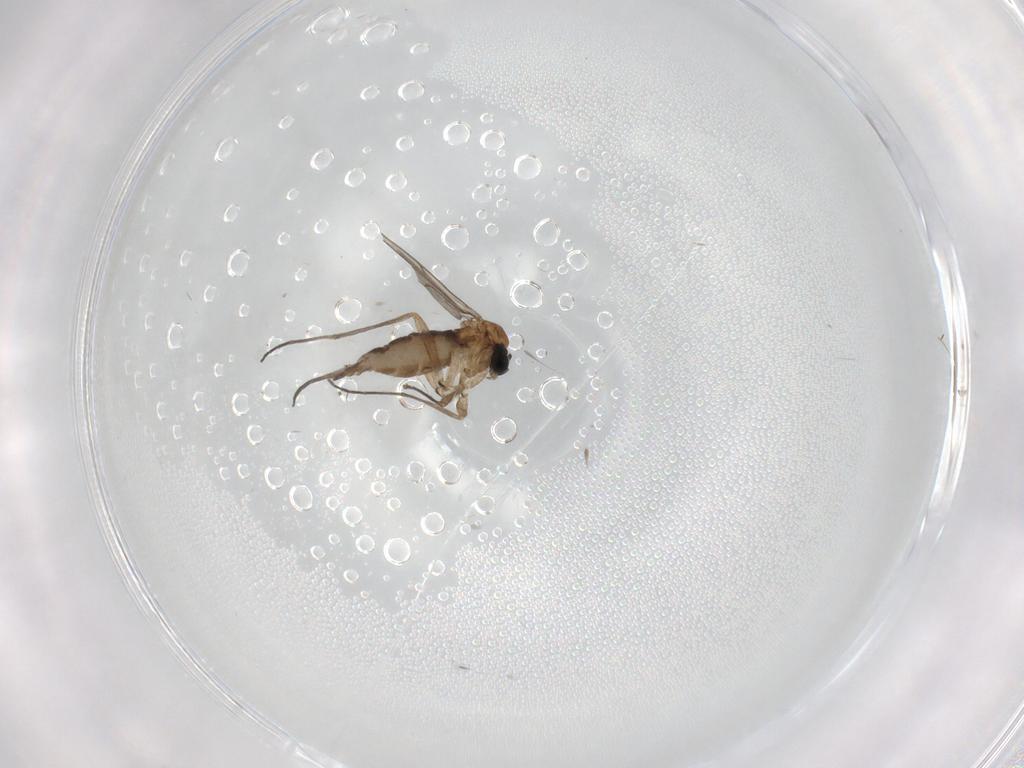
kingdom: Animalia
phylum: Arthropoda
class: Insecta
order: Diptera
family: Sciaridae
